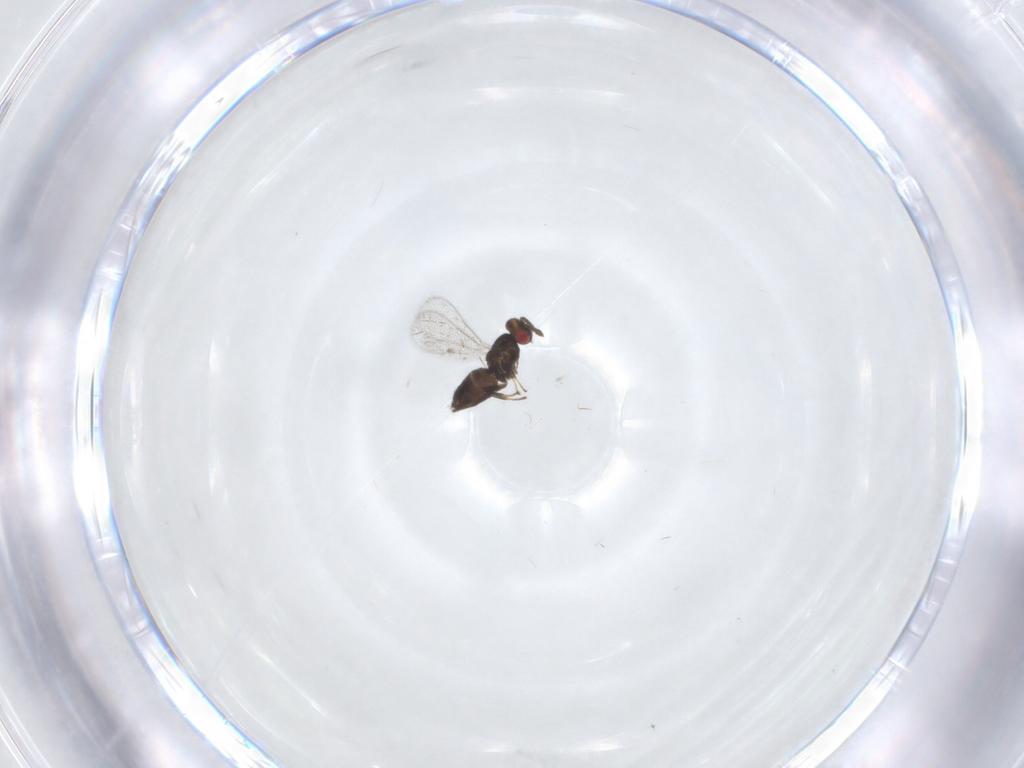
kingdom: Animalia
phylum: Arthropoda
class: Insecta
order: Hymenoptera
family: Eulophidae
